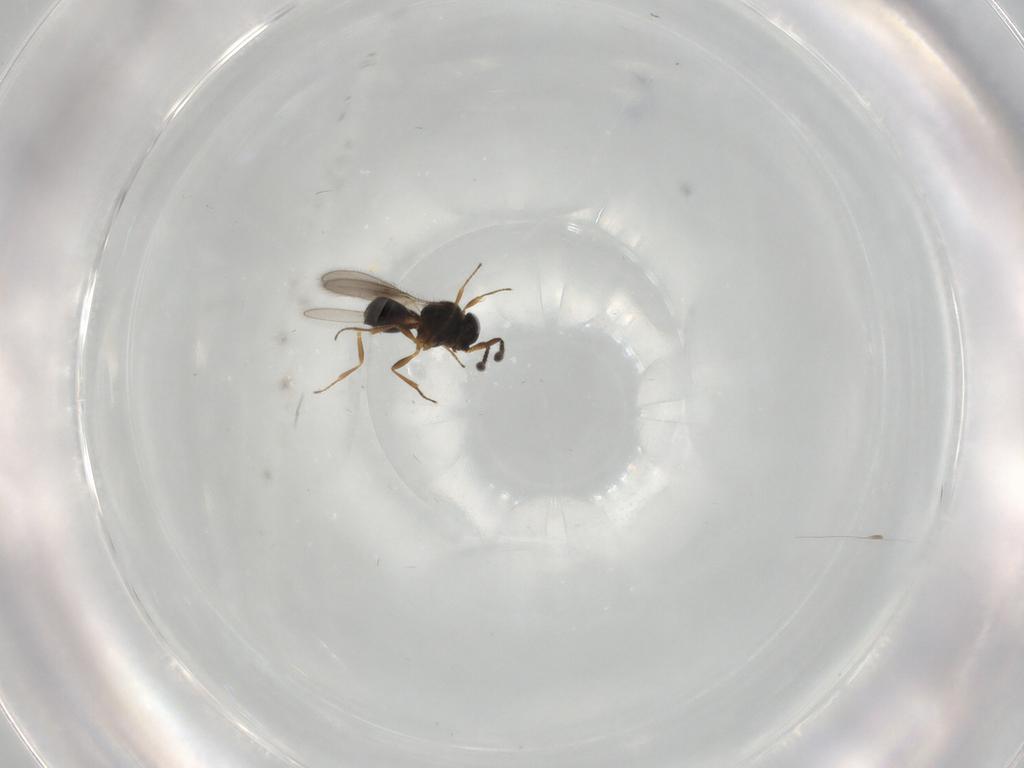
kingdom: Animalia
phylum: Arthropoda
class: Insecta
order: Hymenoptera
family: Scelionidae
